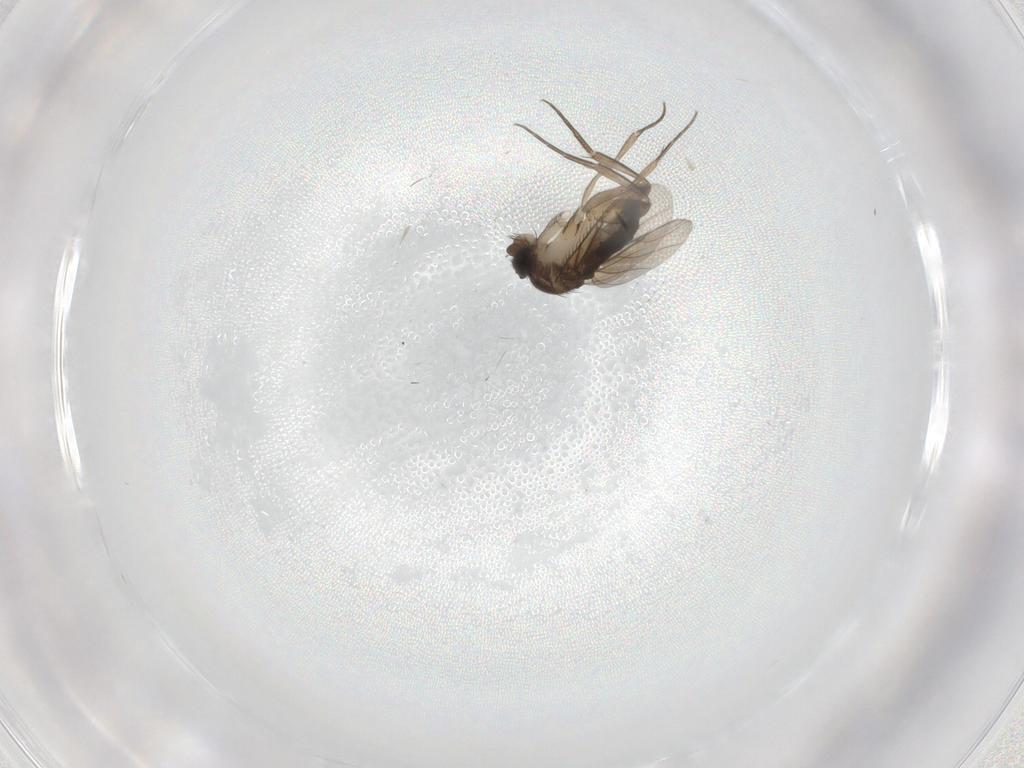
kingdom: Animalia
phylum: Arthropoda
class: Insecta
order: Diptera
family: Phoridae
